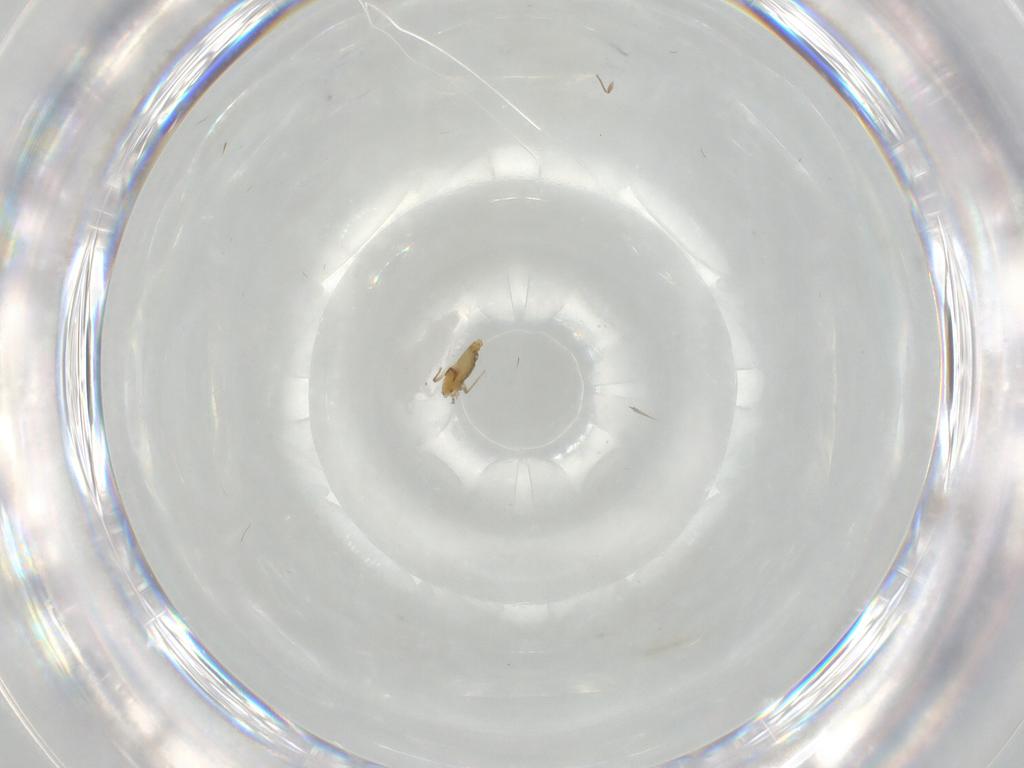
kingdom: Animalia
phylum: Arthropoda
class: Insecta
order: Diptera
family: Chironomidae
